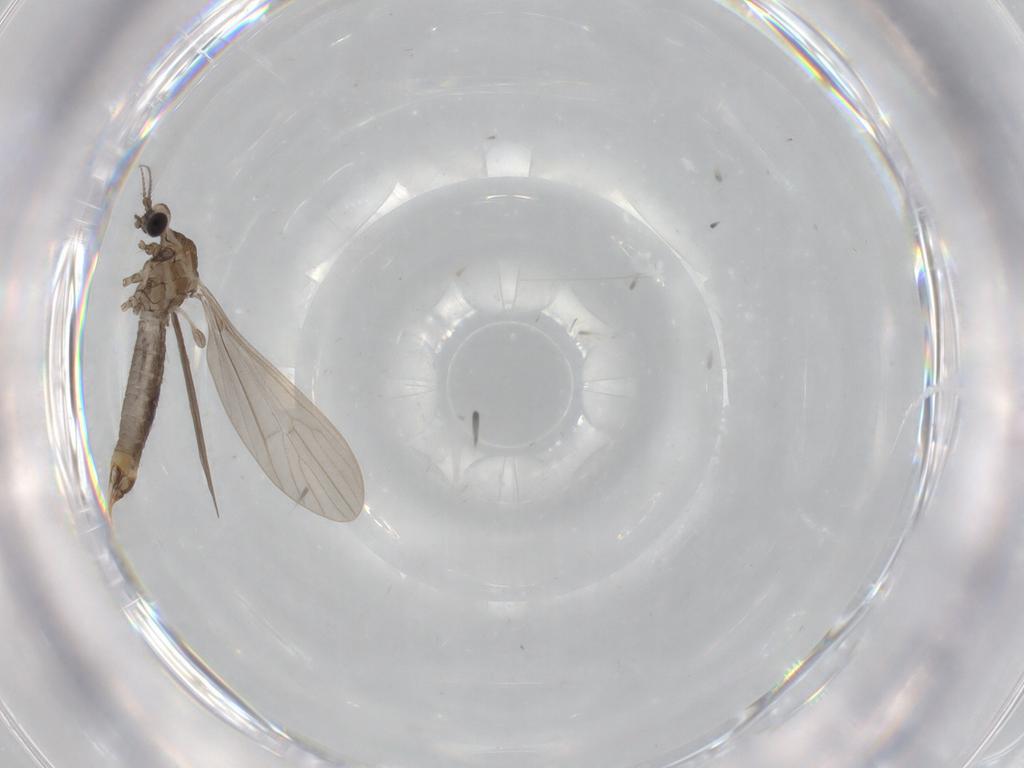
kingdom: Animalia
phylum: Arthropoda
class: Insecta
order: Diptera
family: Limoniidae
